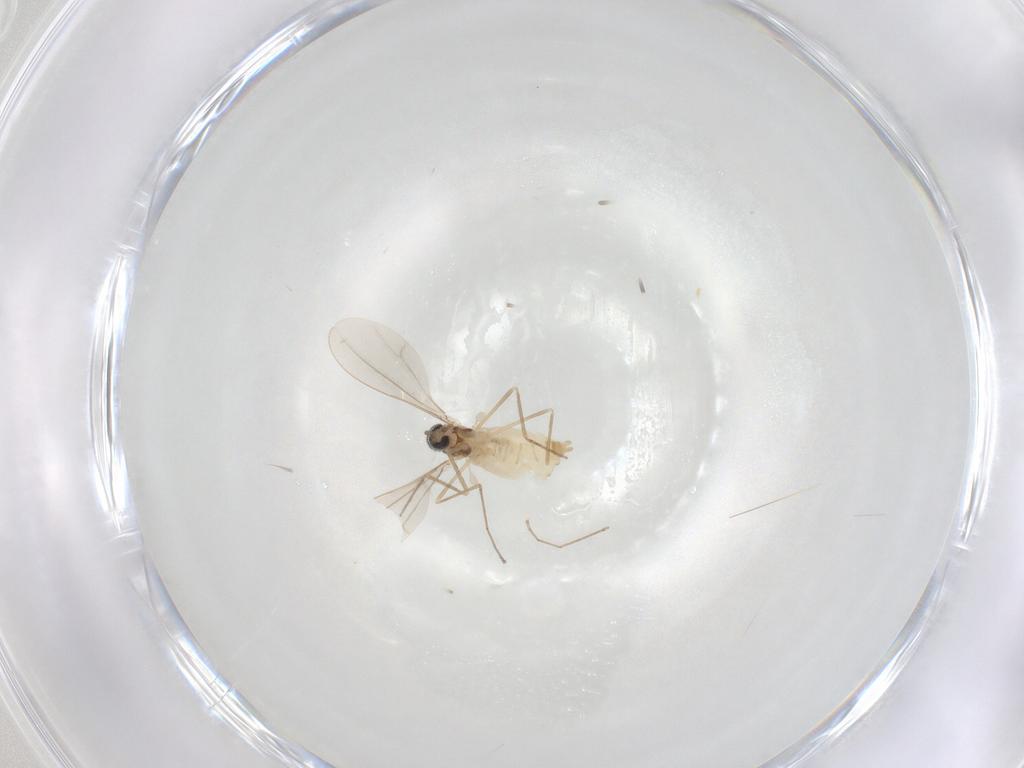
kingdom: Animalia
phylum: Arthropoda
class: Insecta
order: Diptera
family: Cecidomyiidae
